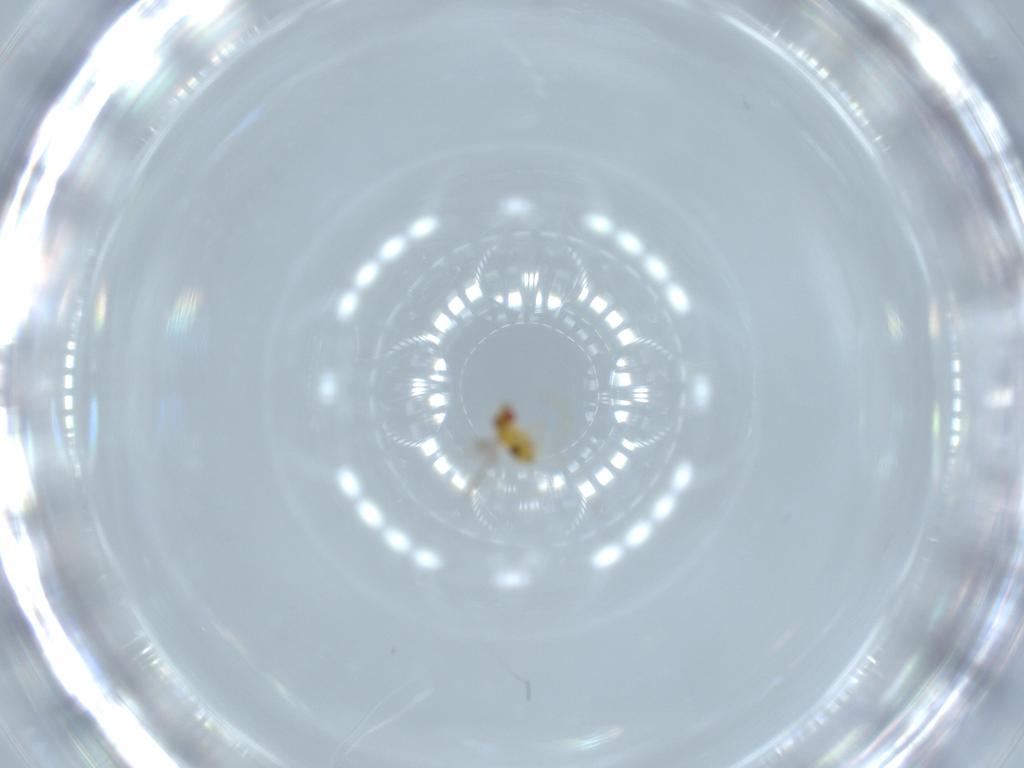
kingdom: Animalia
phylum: Arthropoda
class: Insecta
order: Hymenoptera
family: Trichogrammatidae
